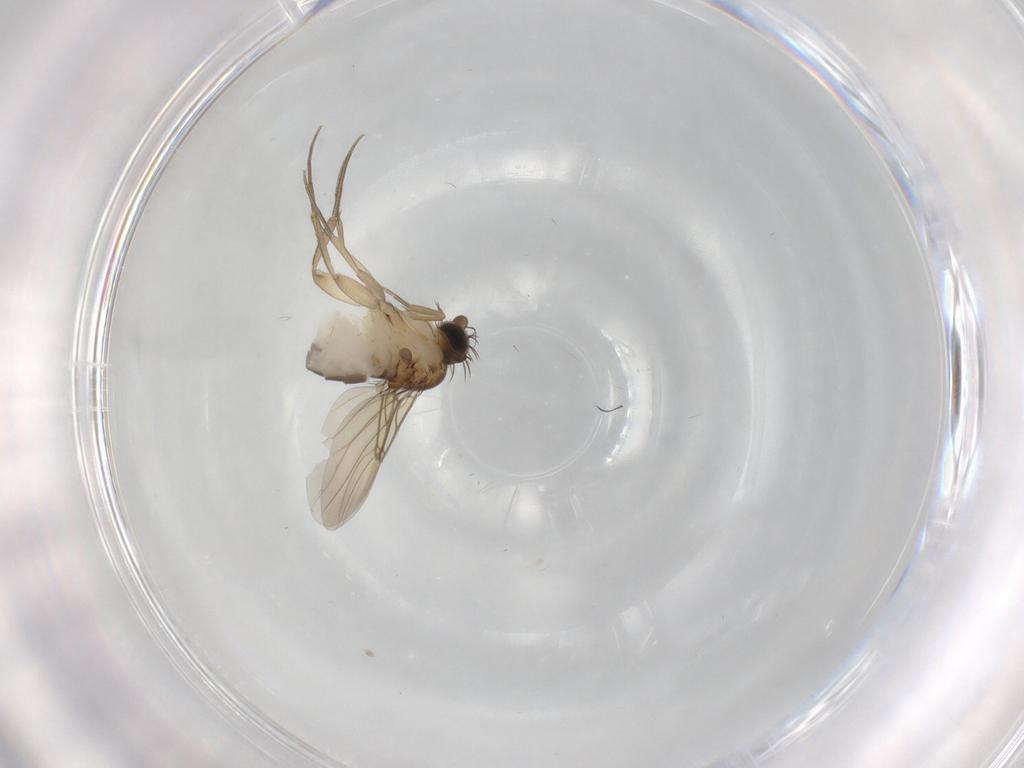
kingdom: Animalia
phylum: Arthropoda
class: Insecta
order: Diptera
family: Phoridae
